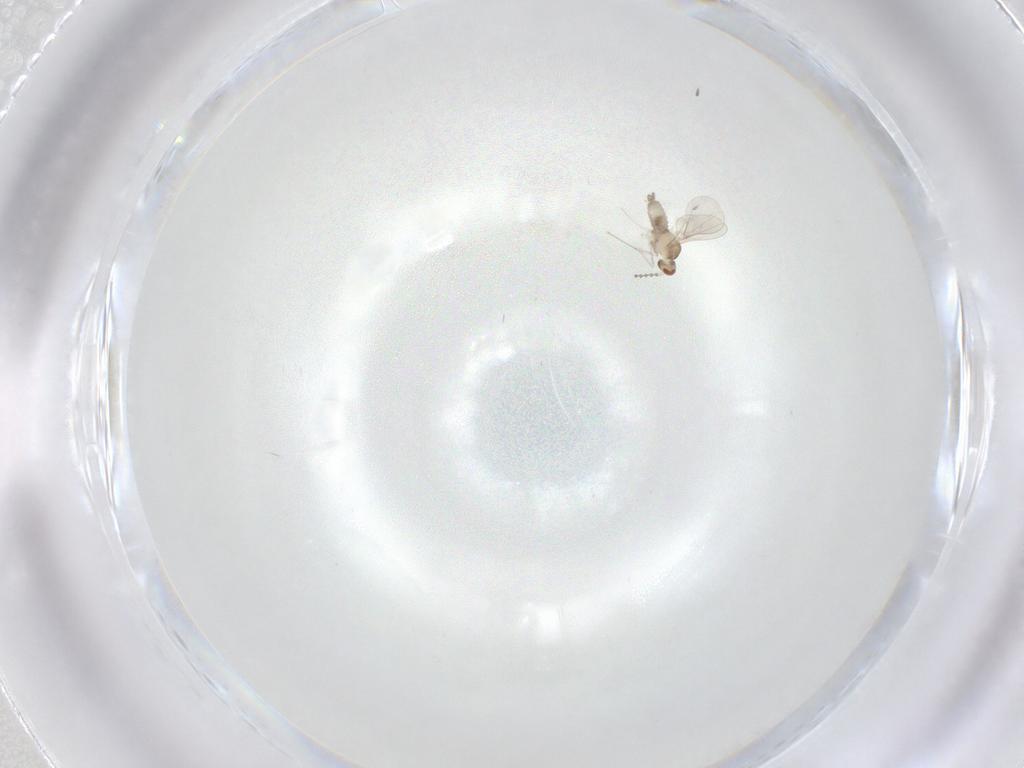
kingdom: Animalia
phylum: Arthropoda
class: Insecta
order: Diptera
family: Cecidomyiidae
